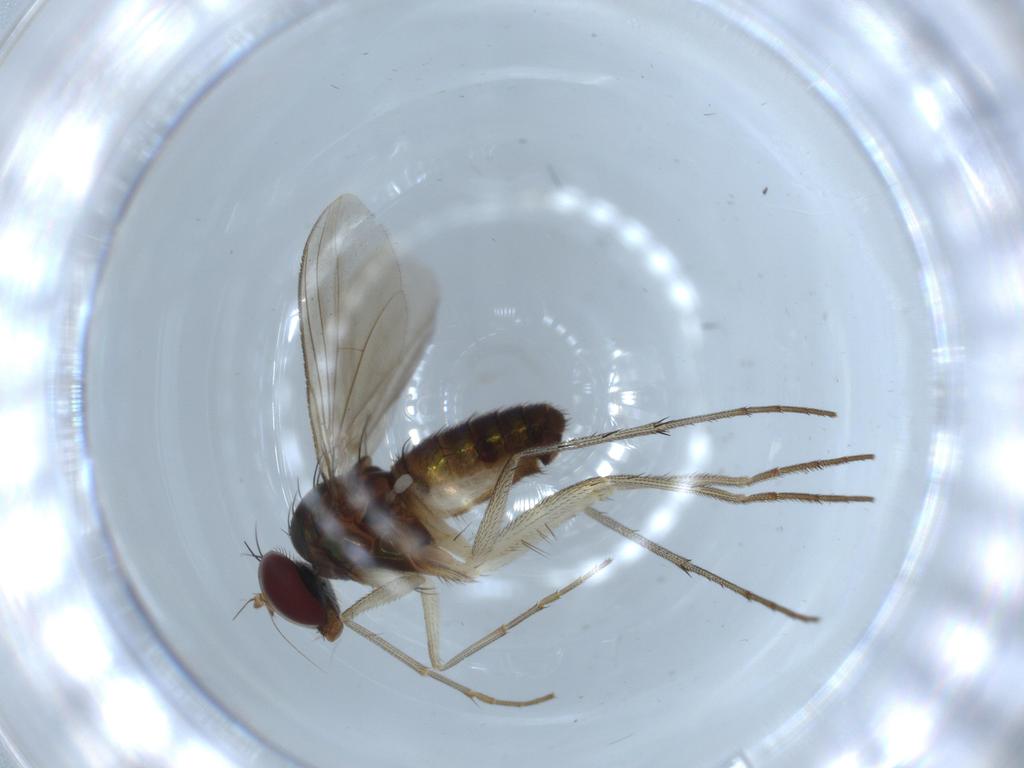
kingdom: Animalia
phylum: Arthropoda
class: Insecta
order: Diptera
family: Dolichopodidae
